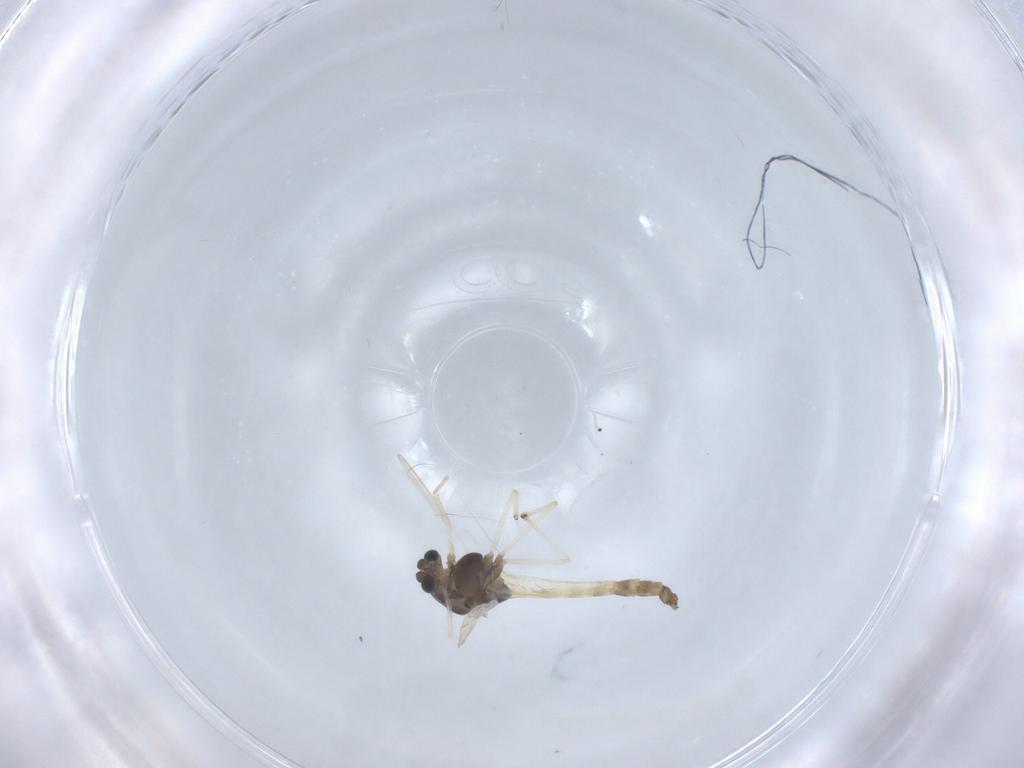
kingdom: Animalia
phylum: Arthropoda
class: Insecta
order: Diptera
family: Chironomidae
